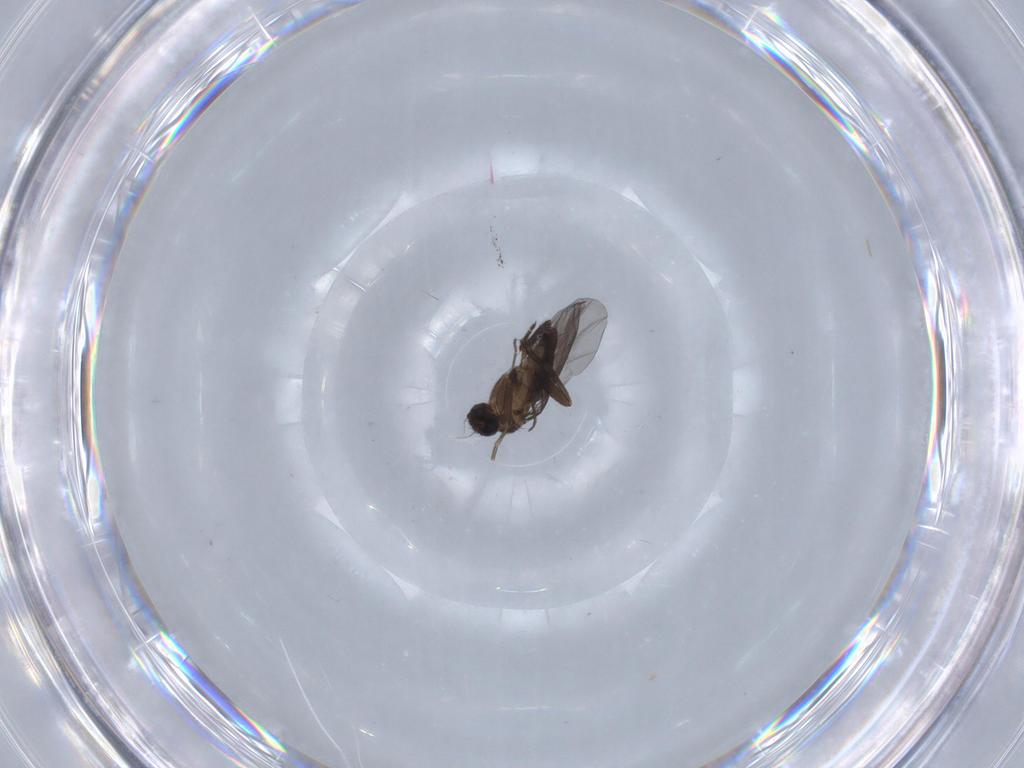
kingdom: Animalia
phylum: Arthropoda
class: Insecta
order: Diptera
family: Cecidomyiidae
